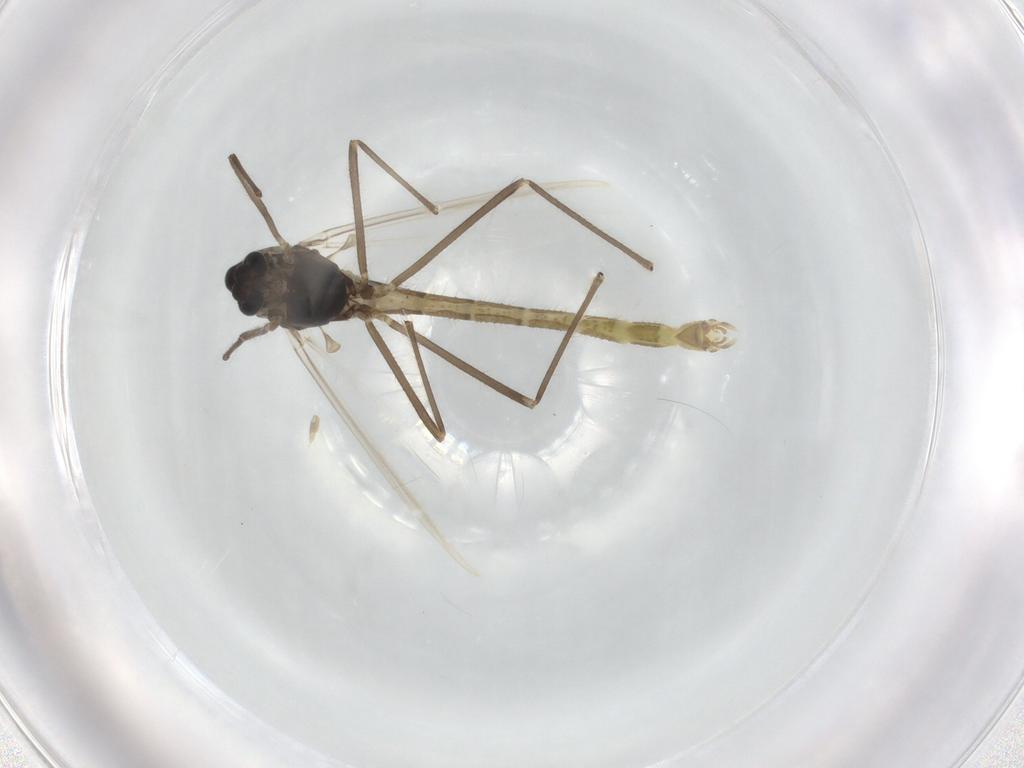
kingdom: Animalia
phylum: Arthropoda
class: Insecta
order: Diptera
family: Chironomidae
